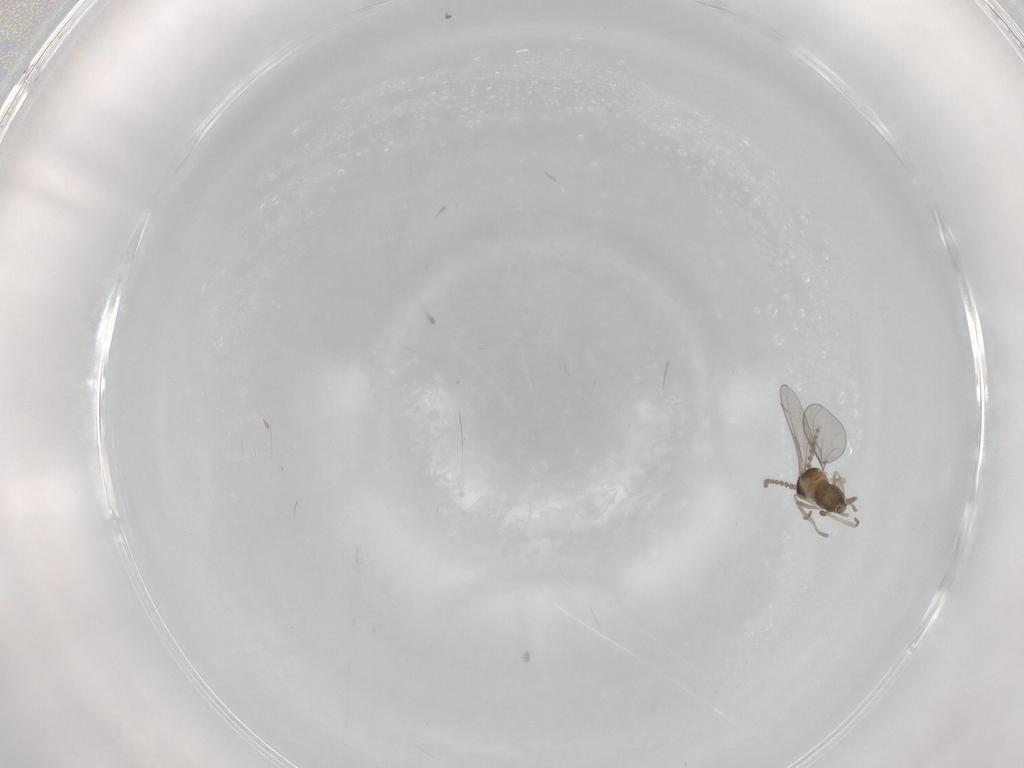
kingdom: Animalia
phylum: Arthropoda
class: Insecta
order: Diptera
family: Cecidomyiidae
